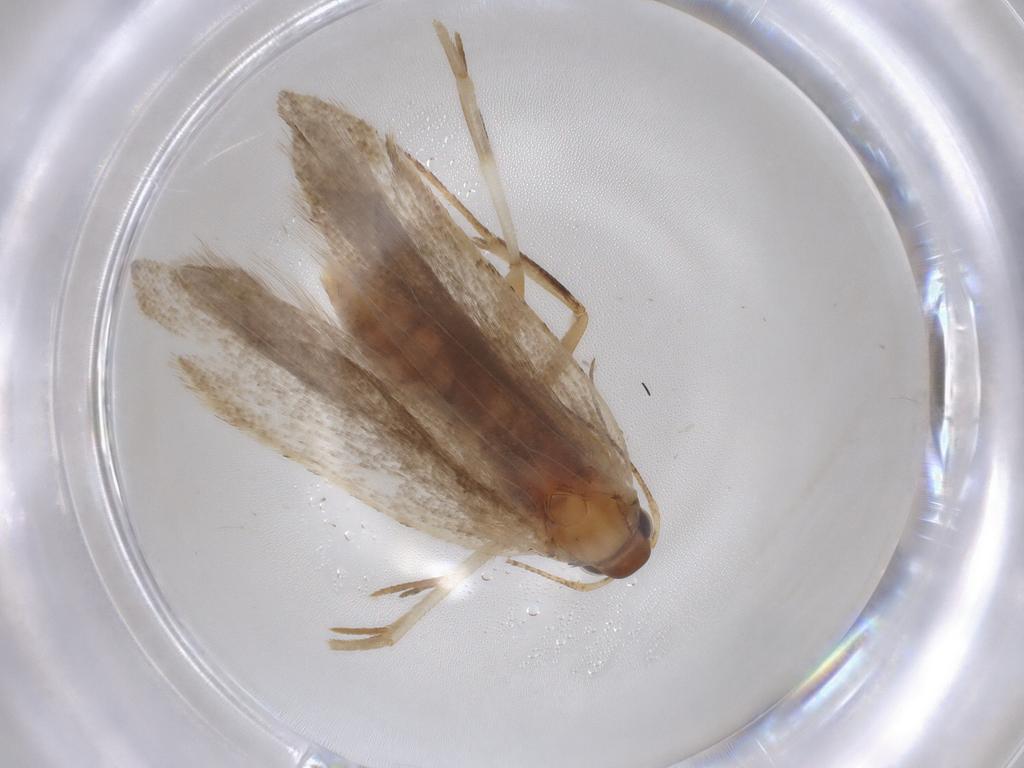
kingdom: Animalia
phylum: Arthropoda
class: Insecta
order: Lepidoptera
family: Gelechiidae
